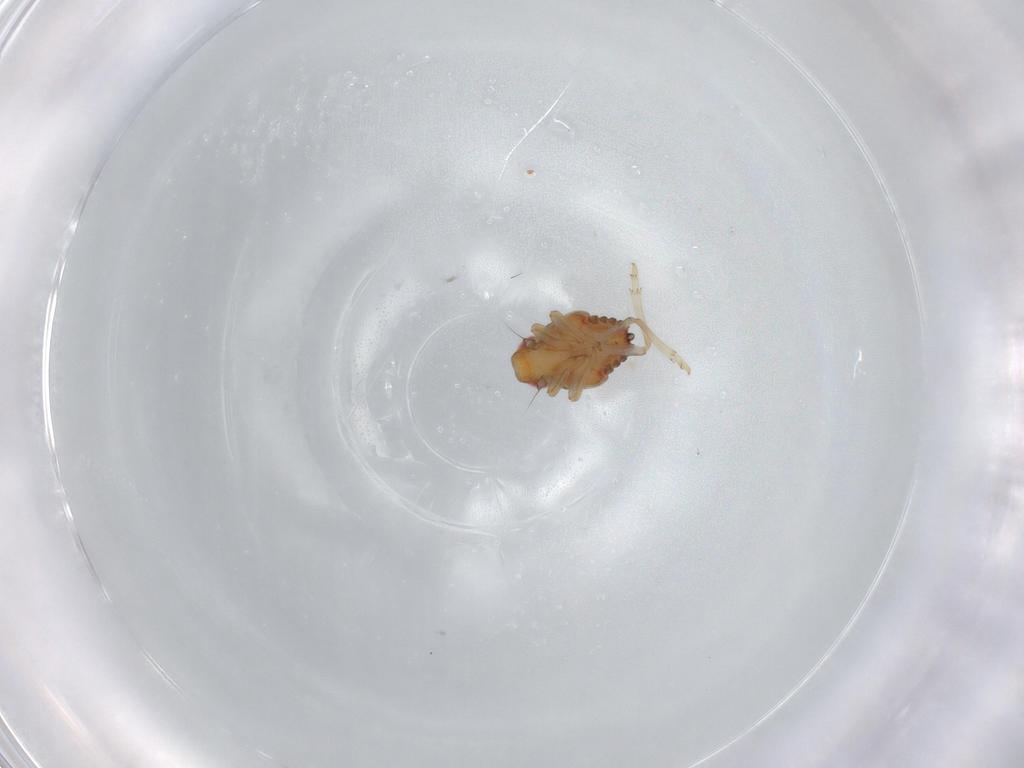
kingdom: Animalia
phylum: Arthropoda
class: Insecta
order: Hemiptera
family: Issidae
